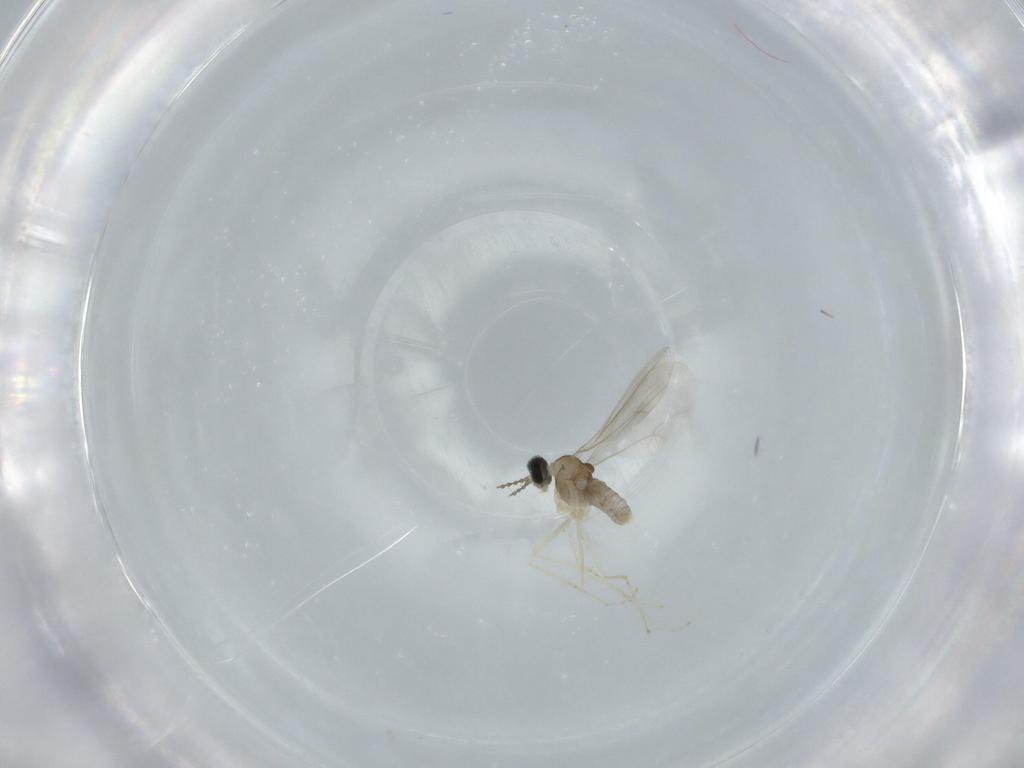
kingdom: Animalia
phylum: Arthropoda
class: Insecta
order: Diptera
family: Cecidomyiidae
